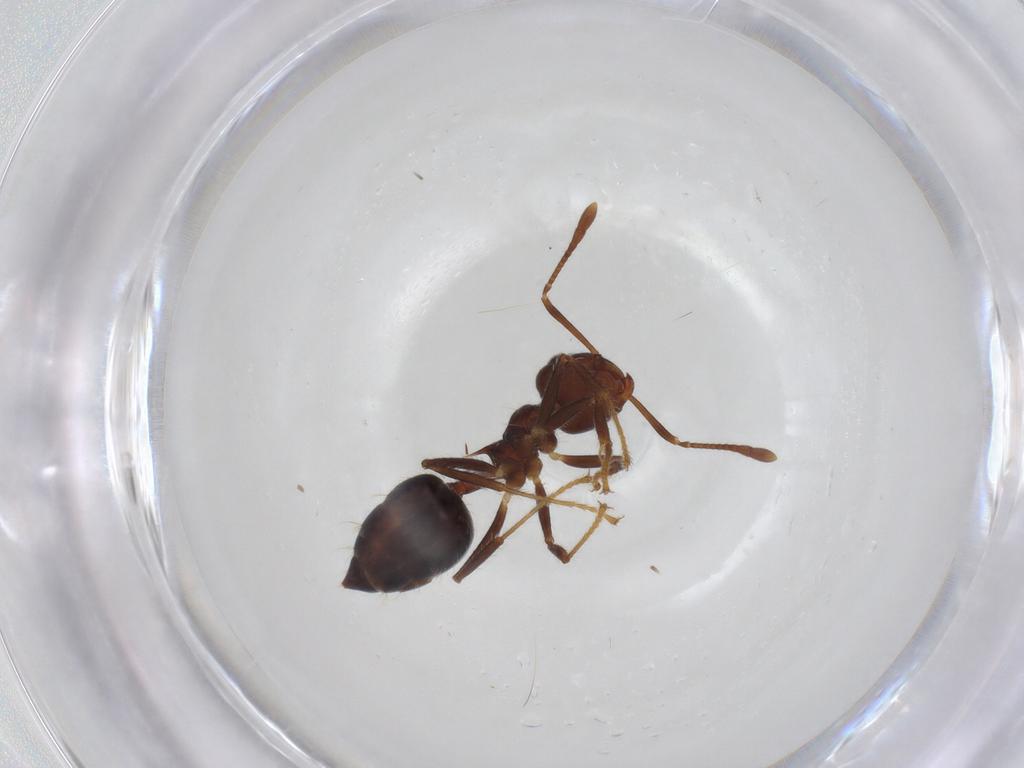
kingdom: Animalia
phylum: Arthropoda
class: Insecta
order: Hymenoptera
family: Formicidae
